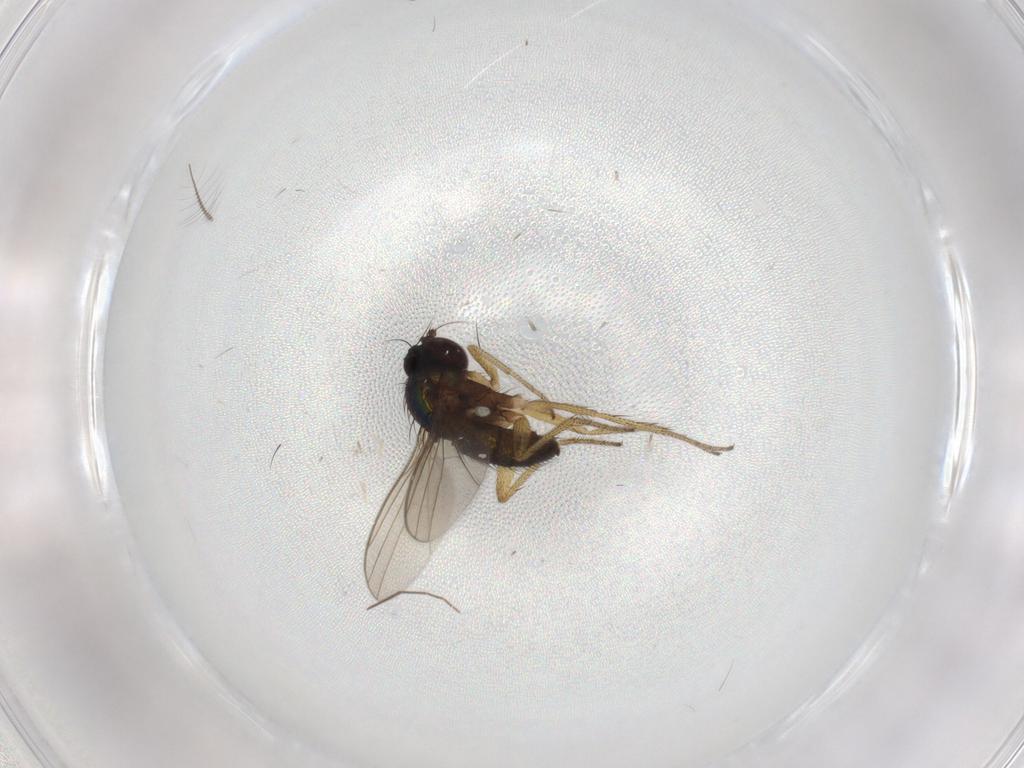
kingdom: Animalia
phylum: Arthropoda
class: Insecta
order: Diptera
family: Chironomidae
